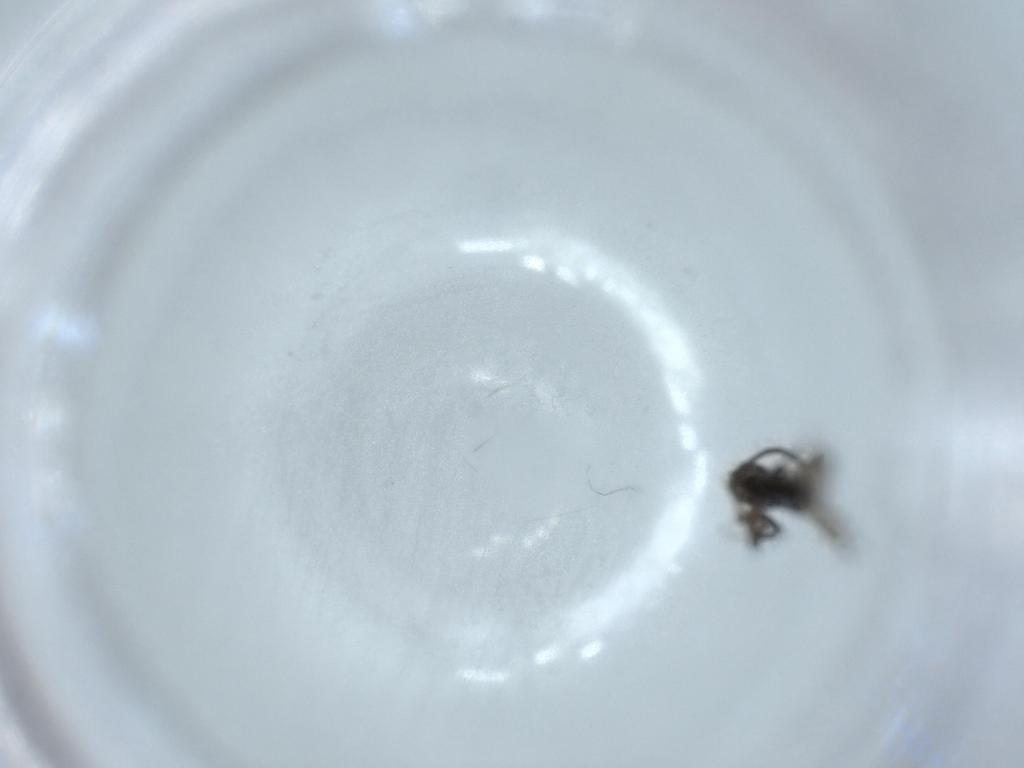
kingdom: Animalia
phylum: Arthropoda
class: Insecta
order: Hymenoptera
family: Bethylidae
